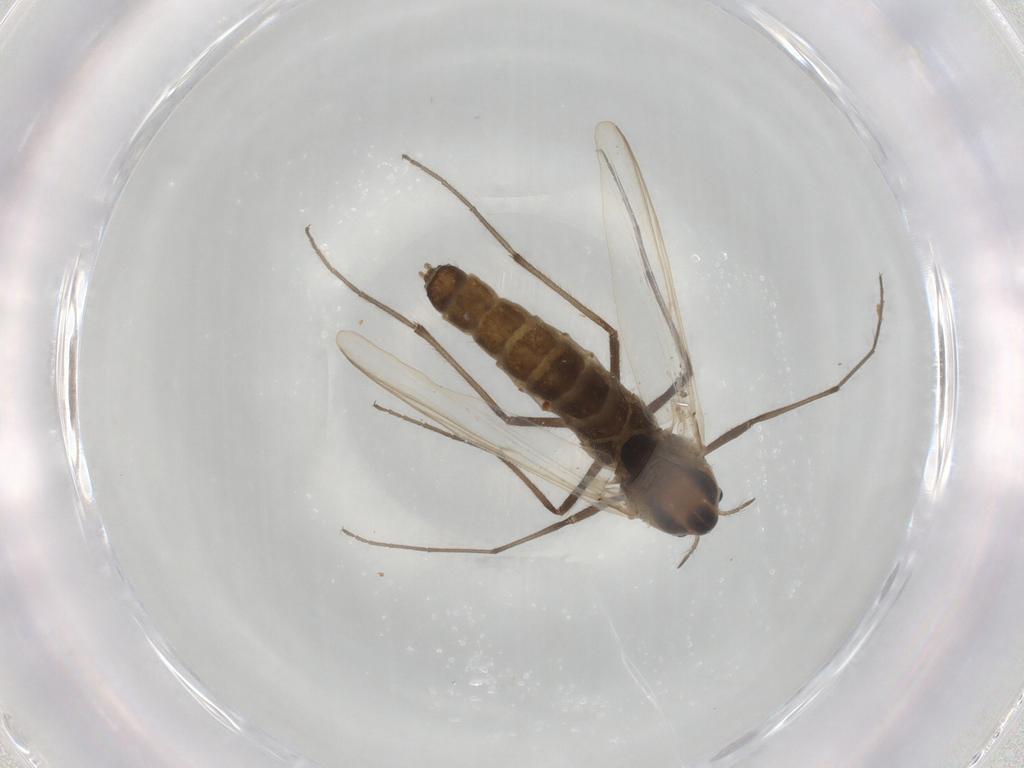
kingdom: Animalia
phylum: Arthropoda
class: Insecta
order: Diptera
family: Chironomidae
